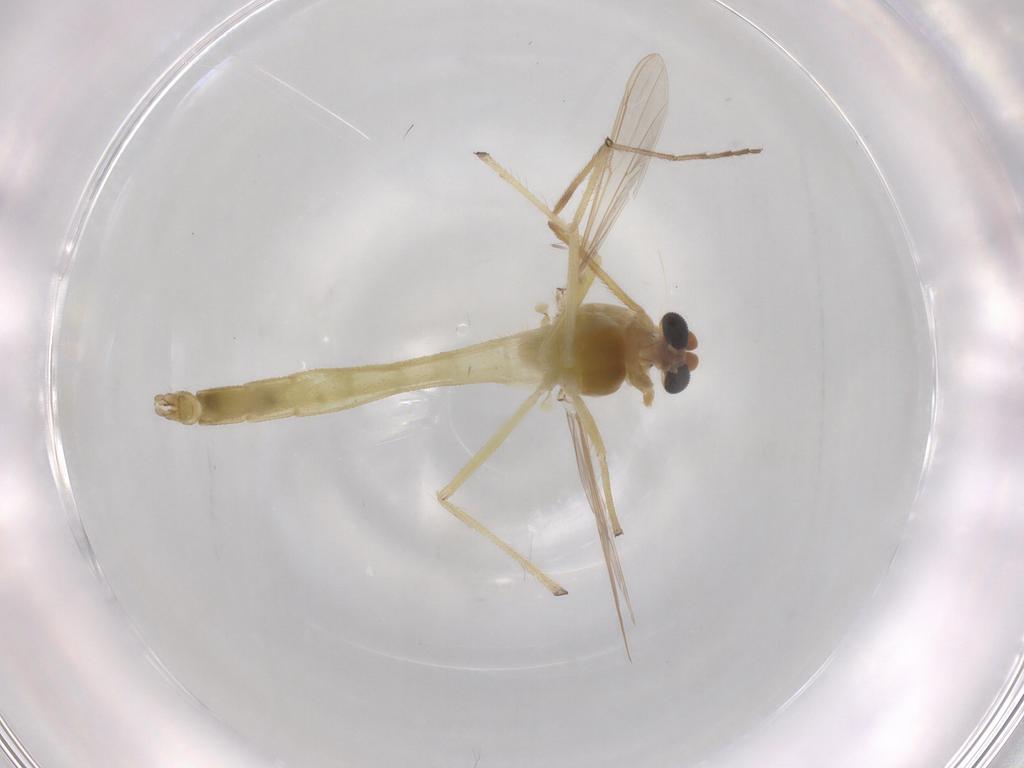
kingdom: Animalia
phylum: Arthropoda
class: Insecta
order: Diptera
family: Chironomidae
